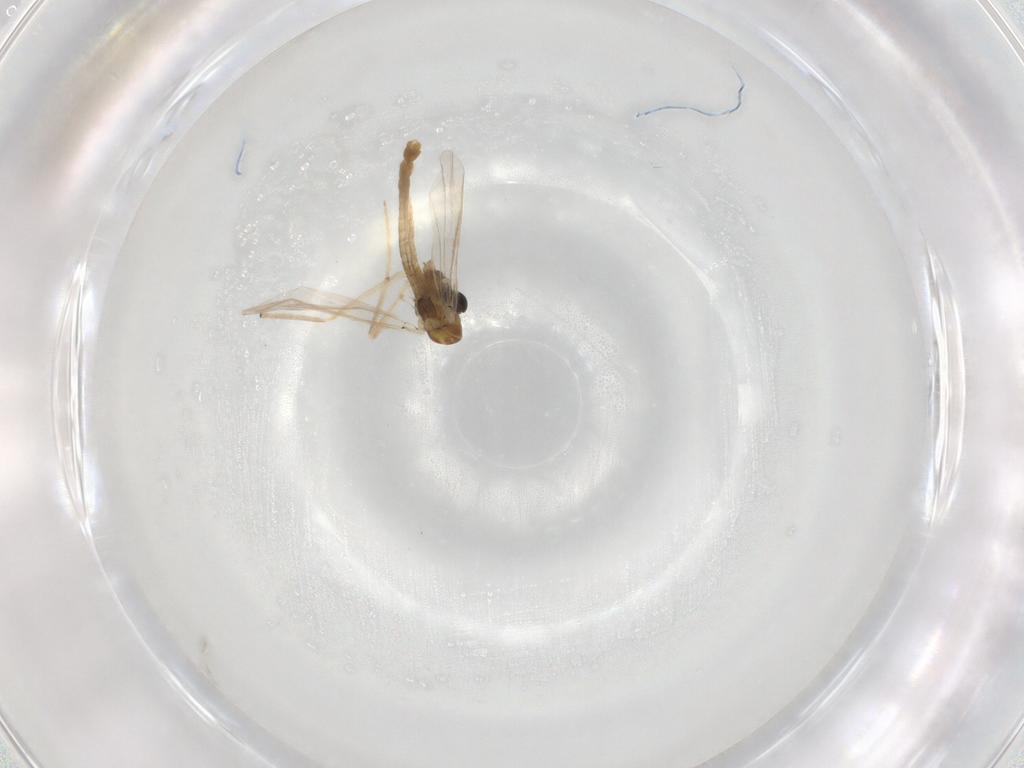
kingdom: Animalia
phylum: Arthropoda
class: Insecta
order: Diptera
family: Chironomidae
